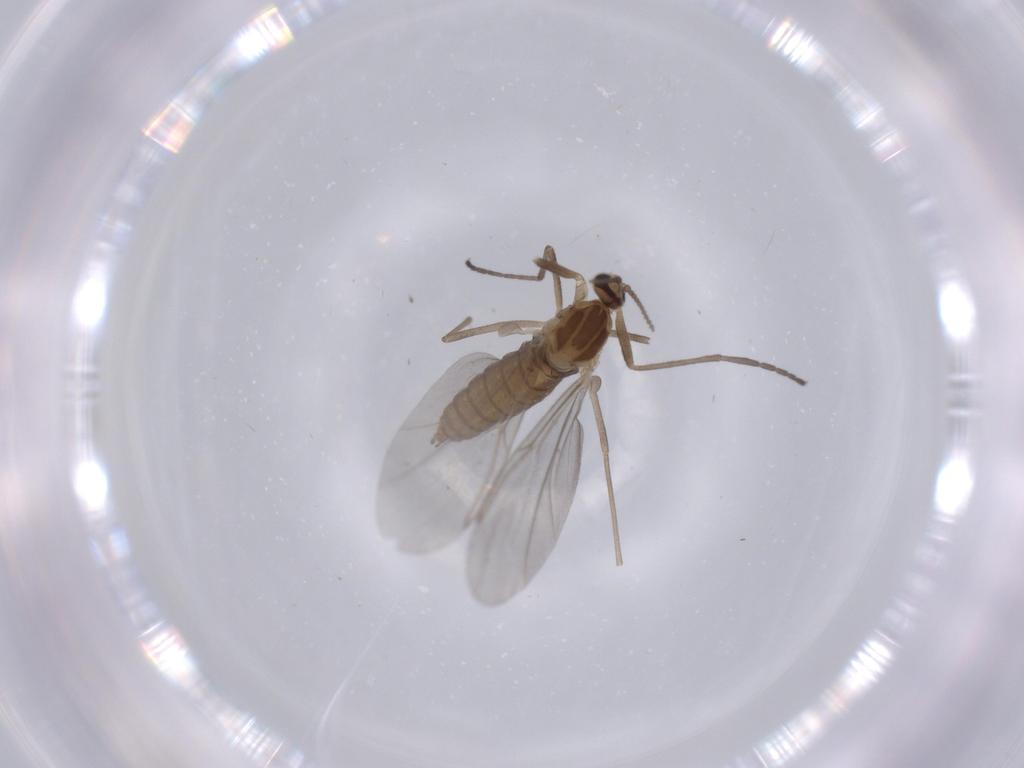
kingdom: Animalia
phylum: Arthropoda
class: Insecta
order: Diptera
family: Cecidomyiidae
